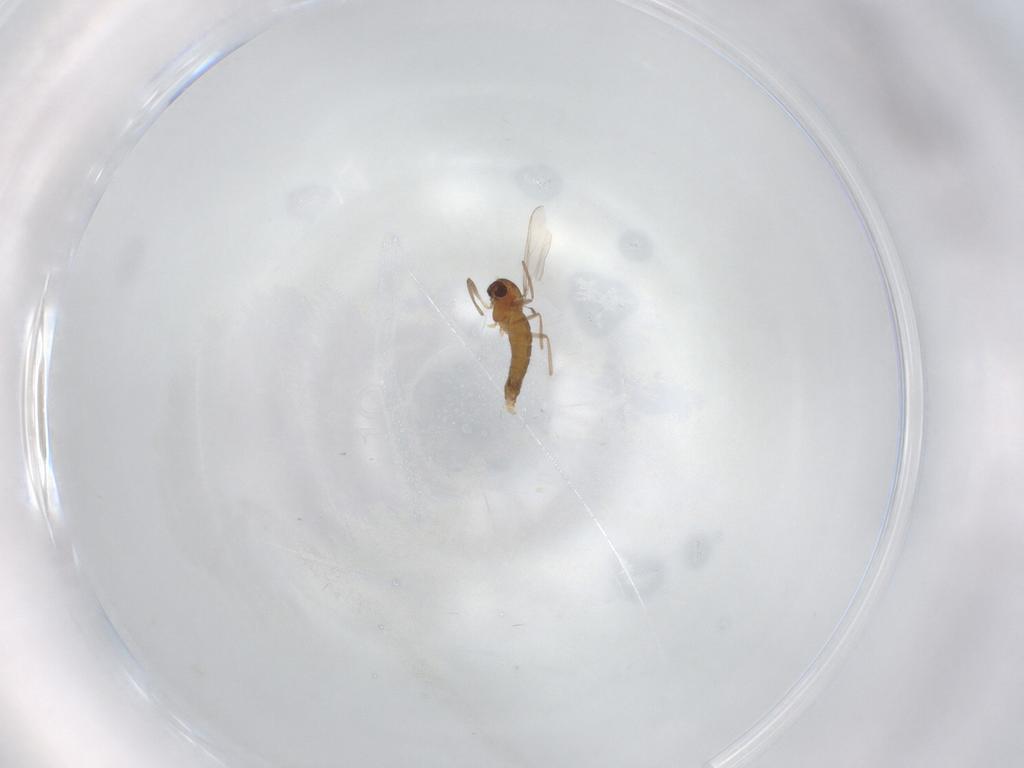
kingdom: Animalia
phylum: Arthropoda
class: Insecta
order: Diptera
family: Chironomidae
